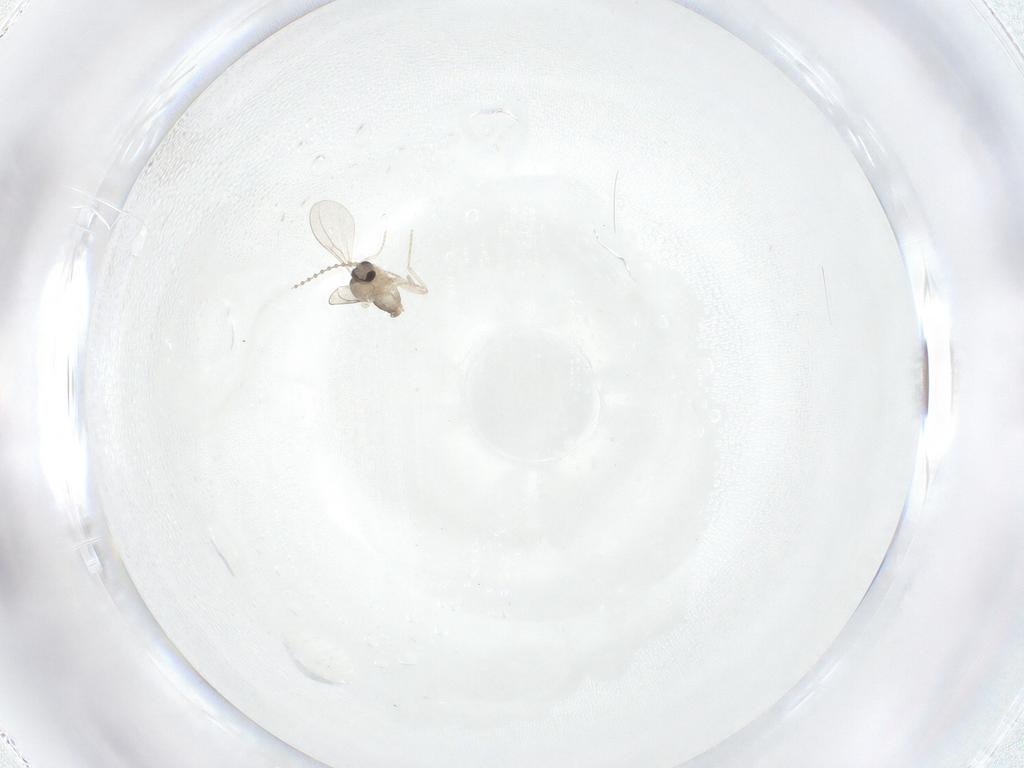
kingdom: Animalia
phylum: Arthropoda
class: Insecta
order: Diptera
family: Cecidomyiidae
